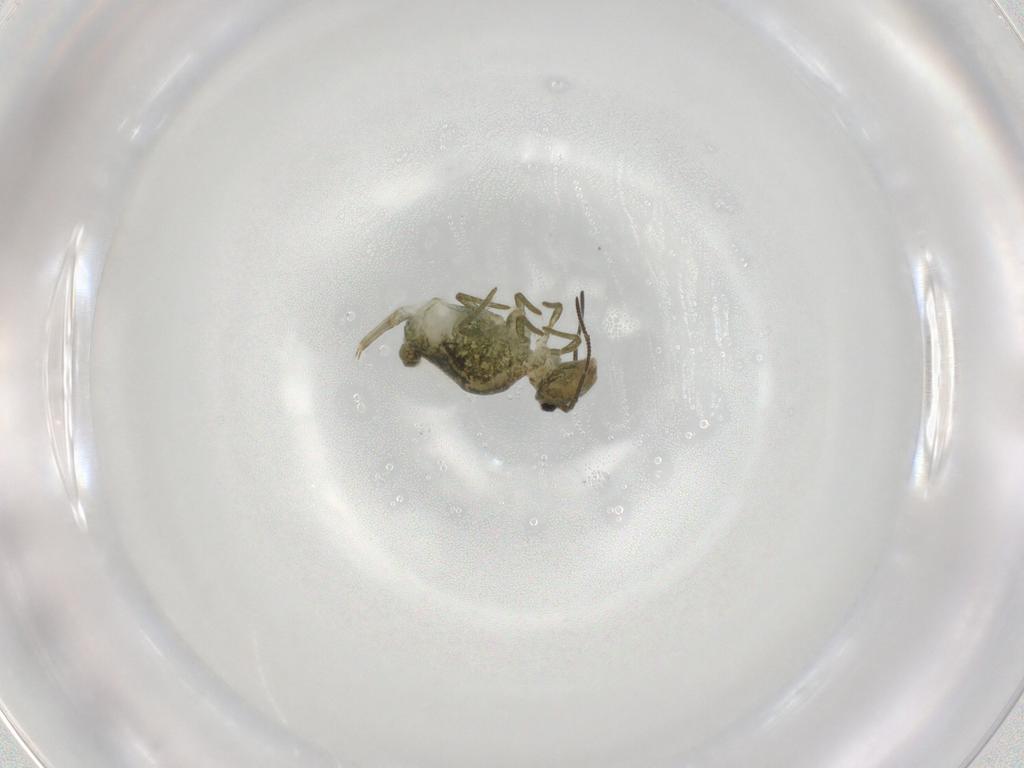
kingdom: Animalia
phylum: Arthropoda
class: Collembola
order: Symphypleona
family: Sminthuridae
